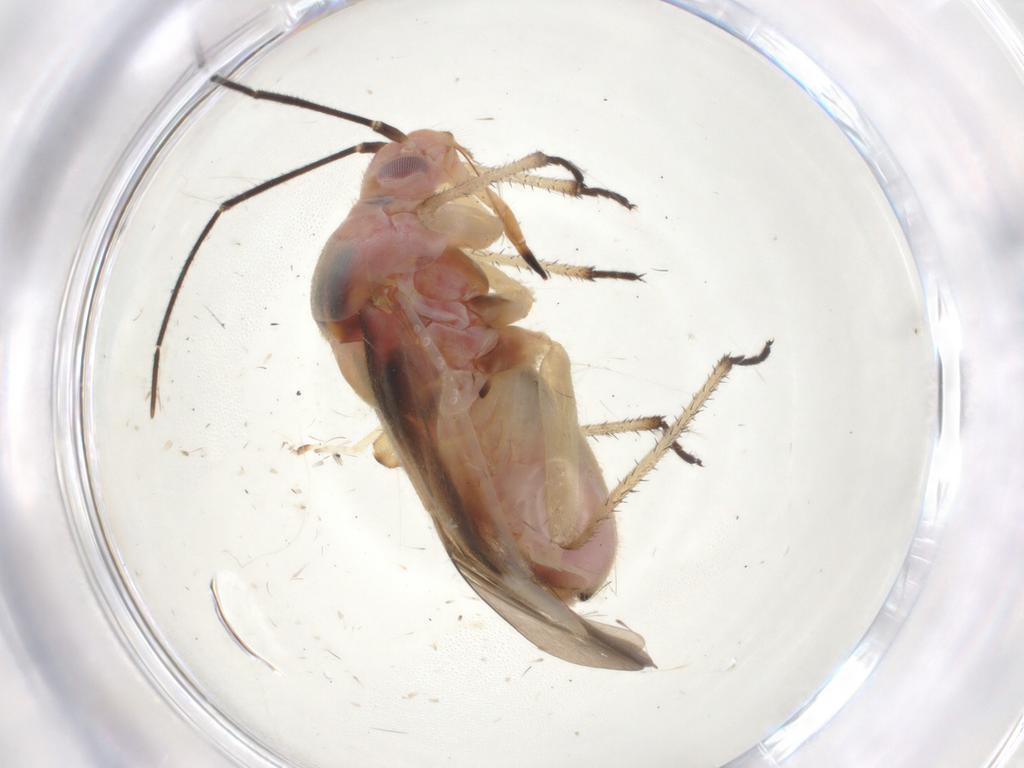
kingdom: Animalia
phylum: Arthropoda
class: Insecta
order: Hemiptera
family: Miridae
